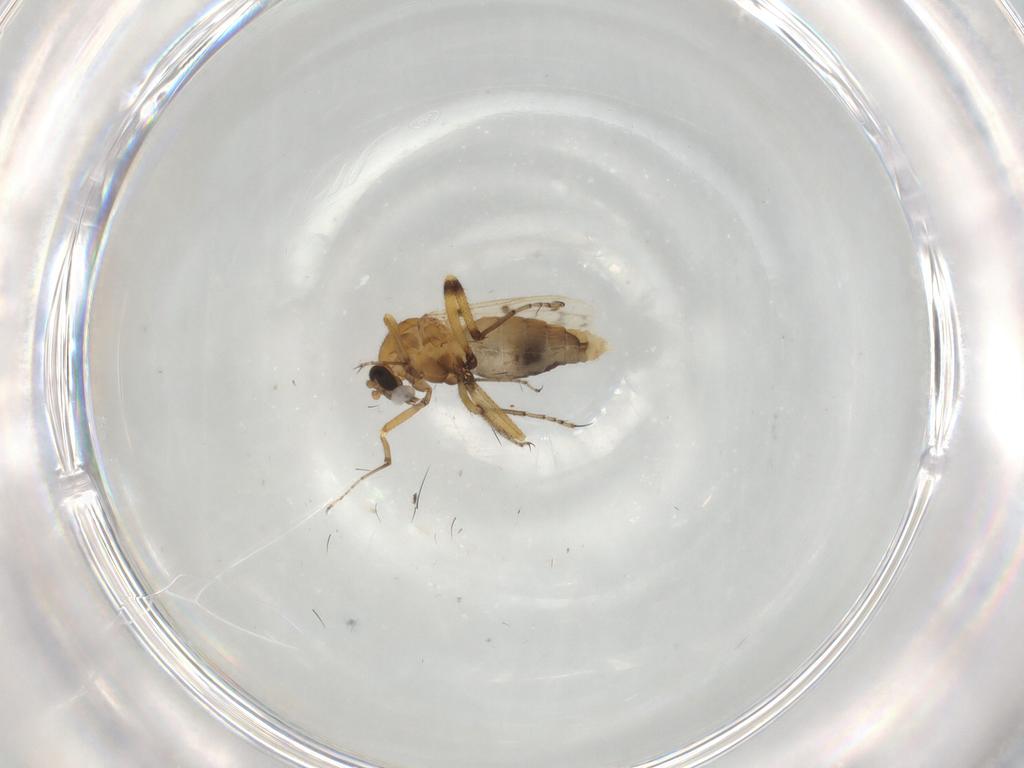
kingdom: Animalia
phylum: Arthropoda
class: Insecta
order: Diptera
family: Ceratopogonidae
